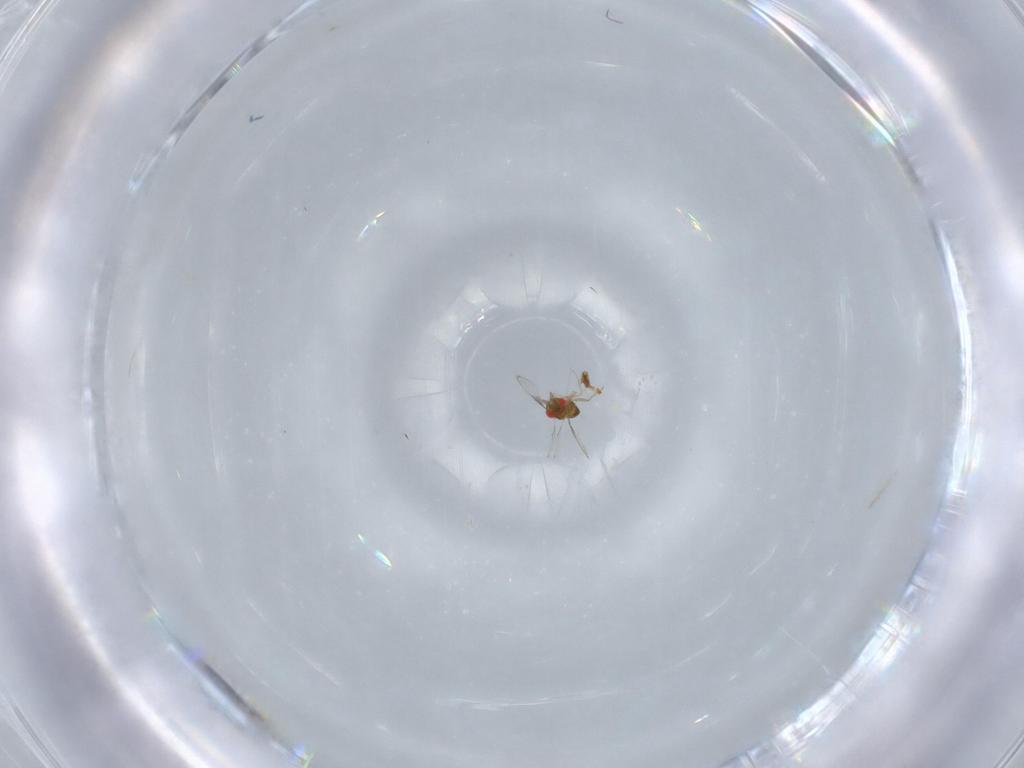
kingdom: Animalia
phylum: Arthropoda
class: Insecta
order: Hymenoptera
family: Trichogrammatidae
